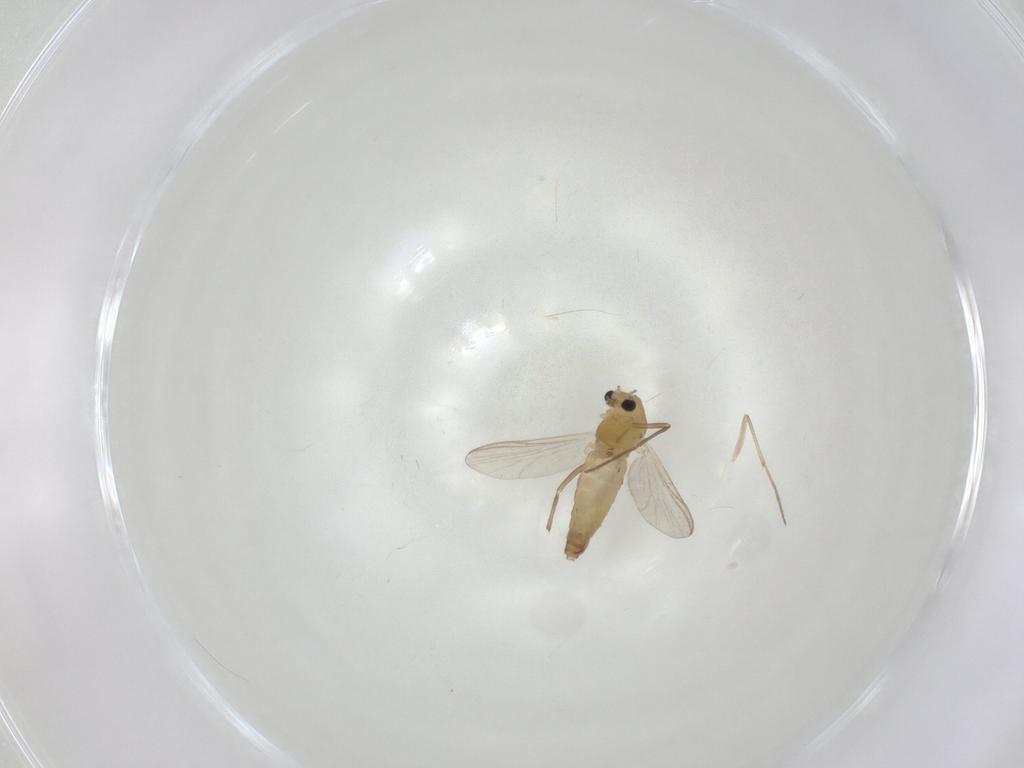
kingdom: Animalia
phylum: Arthropoda
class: Insecta
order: Diptera
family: Chironomidae
